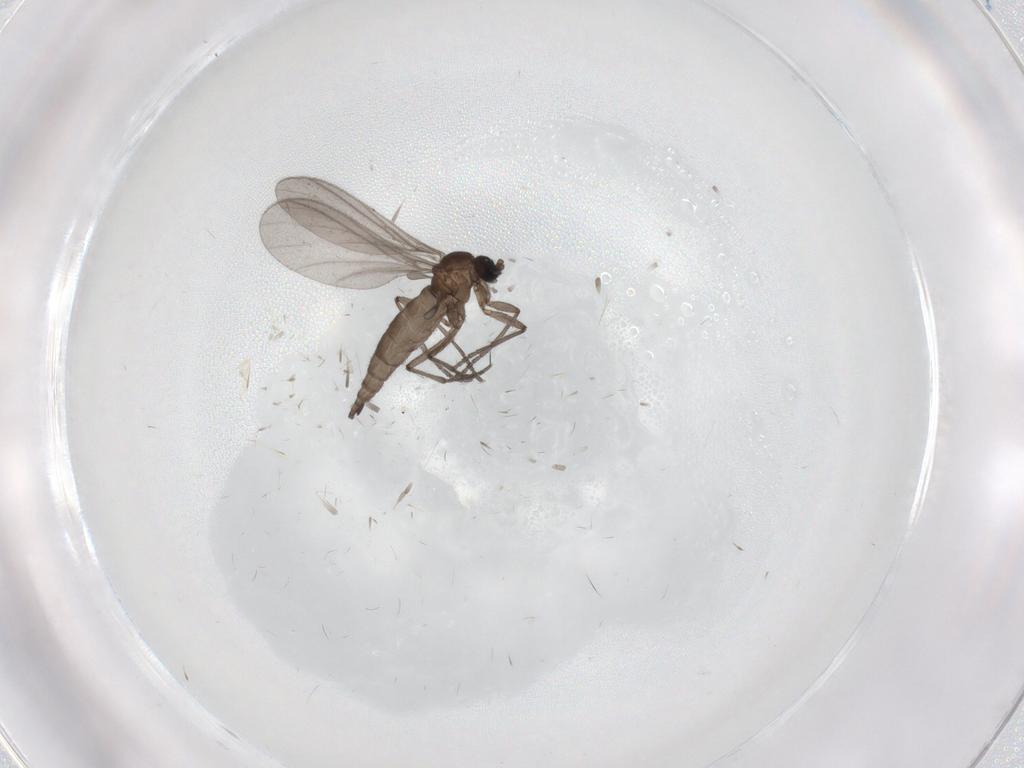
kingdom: Animalia
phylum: Arthropoda
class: Insecta
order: Diptera
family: Sciaridae
